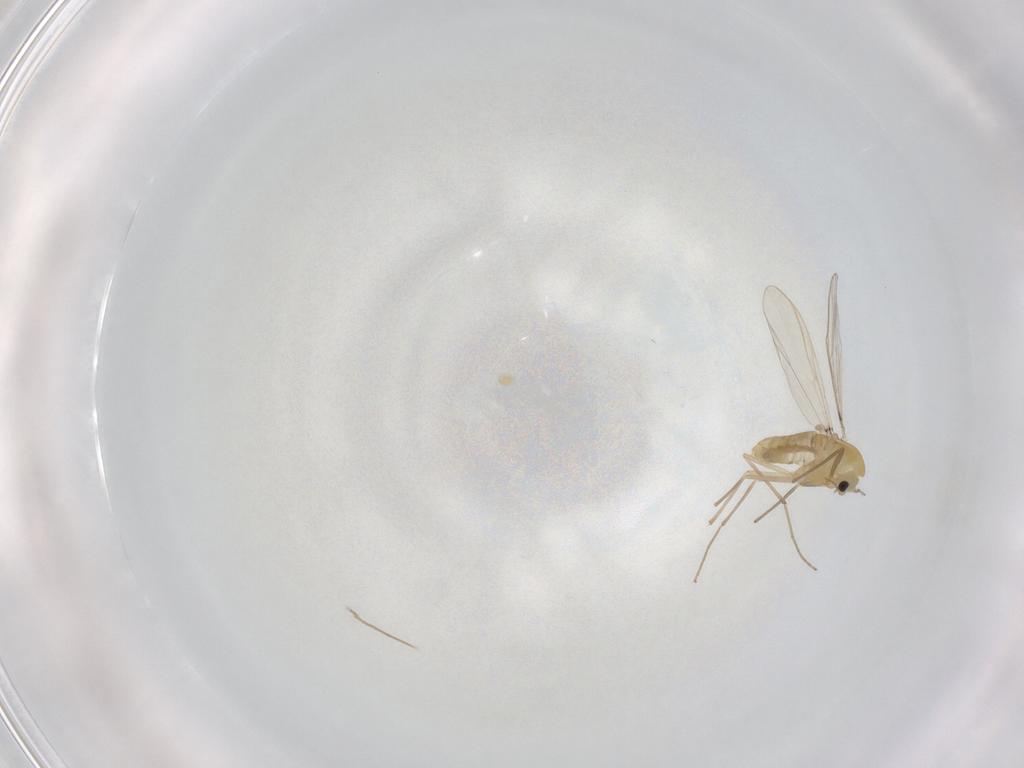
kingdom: Animalia
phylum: Arthropoda
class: Insecta
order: Diptera
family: Chironomidae
